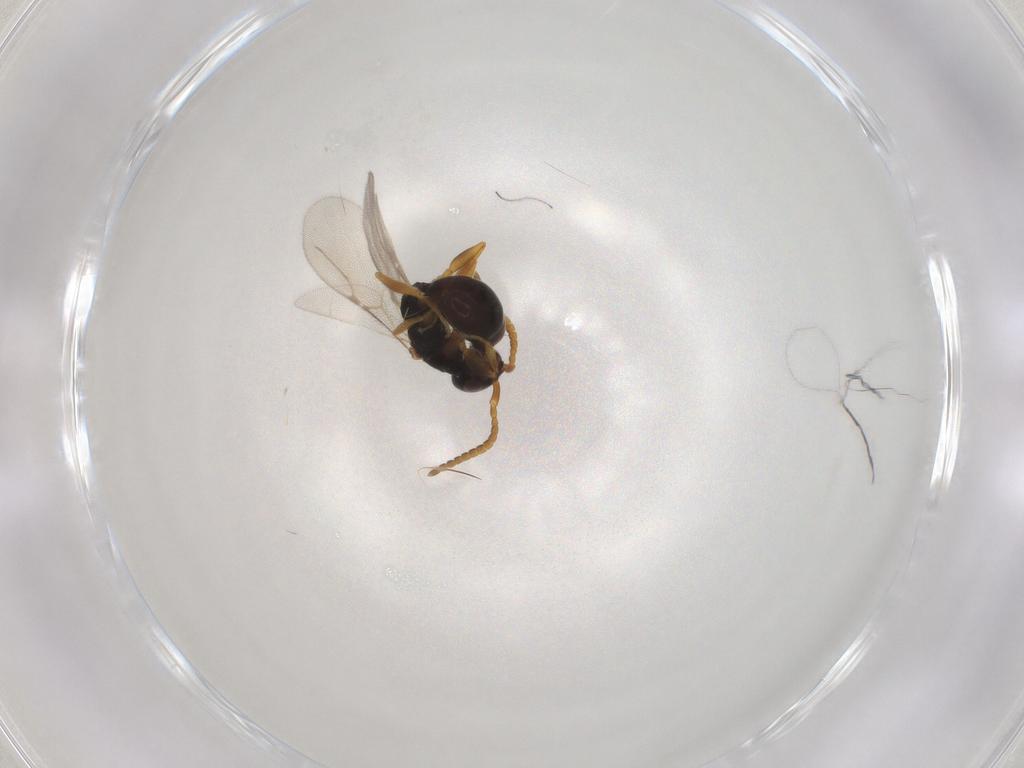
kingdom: Animalia
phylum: Arthropoda
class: Insecta
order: Hymenoptera
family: Bethylidae
